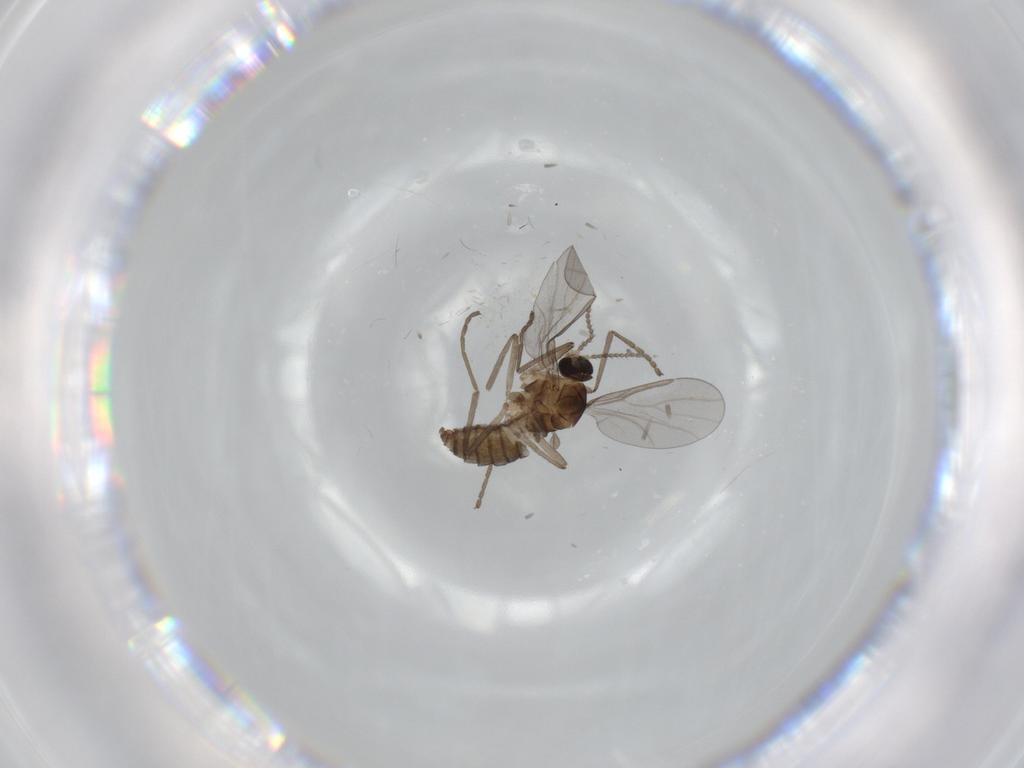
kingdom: Animalia
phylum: Arthropoda
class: Insecta
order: Diptera
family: Cecidomyiidae
